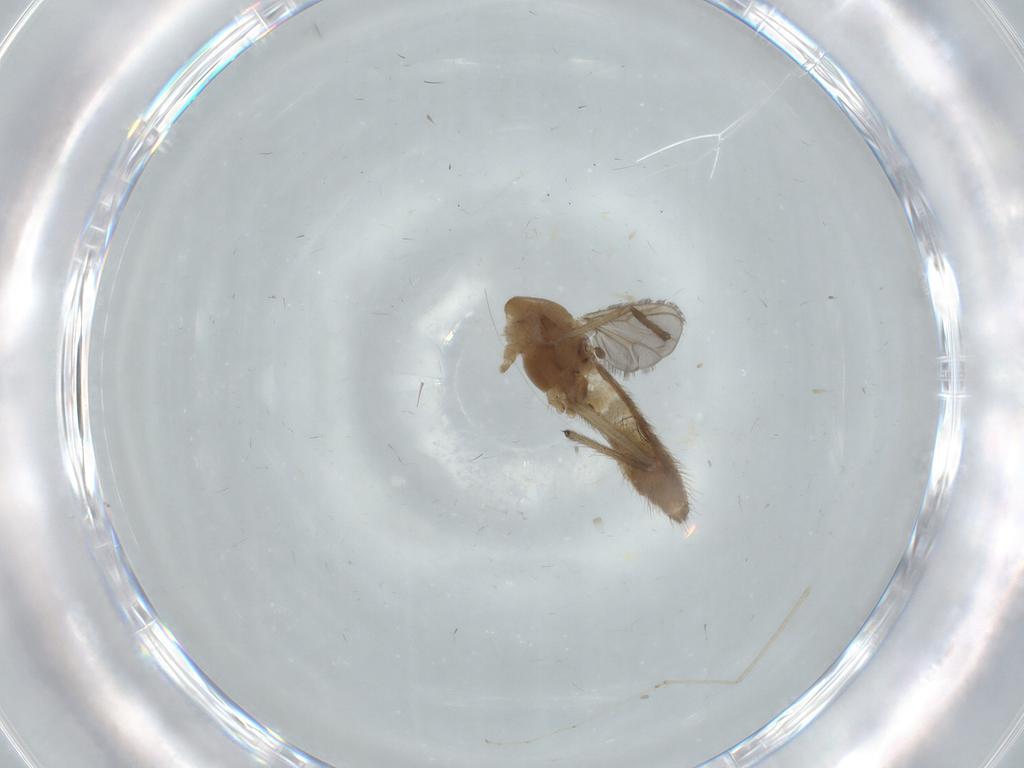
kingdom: Animalia
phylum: Arthropoda
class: Insecta
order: Diptera
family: Chironomidae
